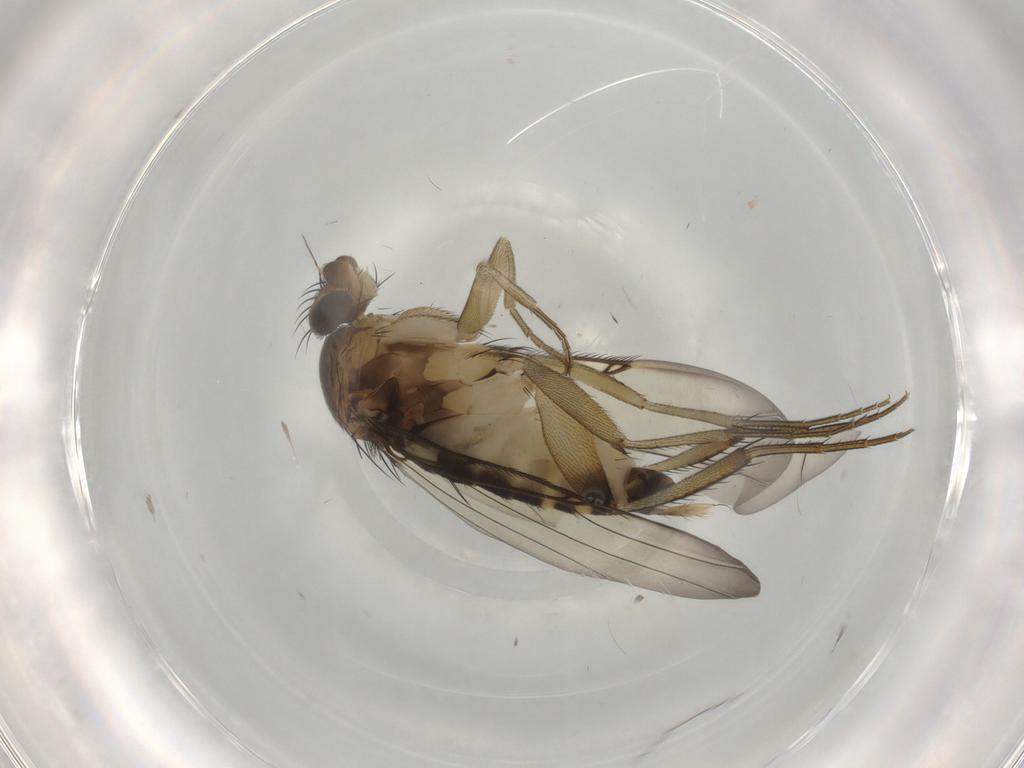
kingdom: Animalia
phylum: Arthropoda
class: Insecta
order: Diptera
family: Phoridae
